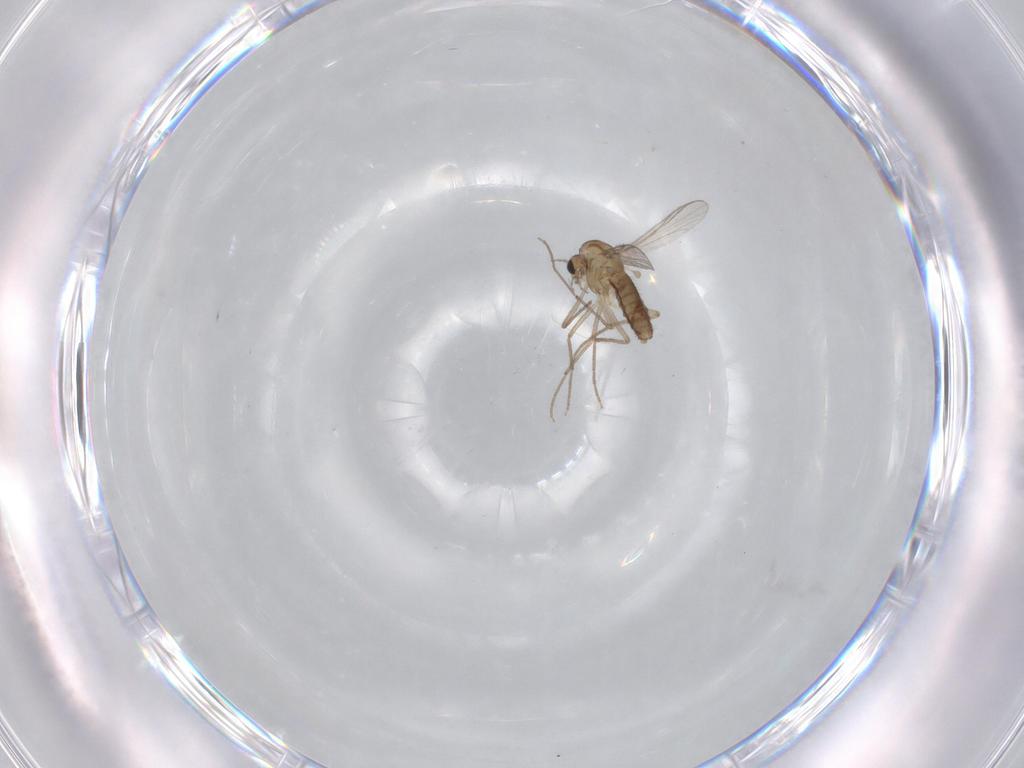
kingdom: Animalia
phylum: Arthropoda
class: Insecta
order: Diptera
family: Chironomidae
